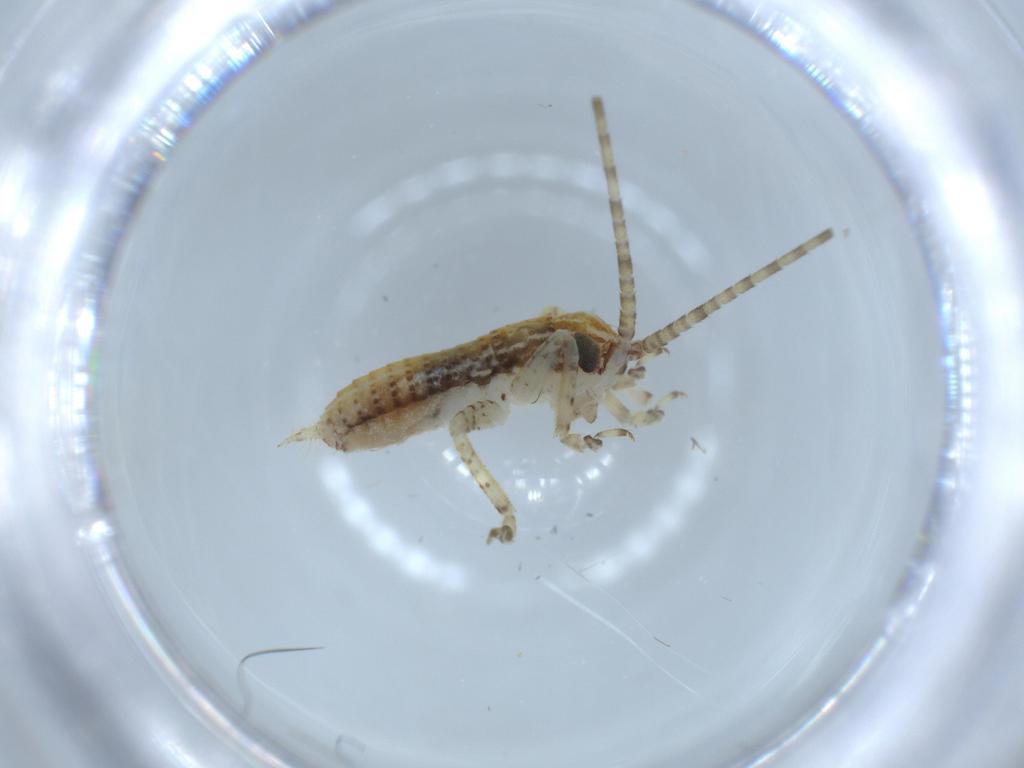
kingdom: Animalia
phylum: Arthropoda
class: Insecta
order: Orthoptera
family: Gryllidae
